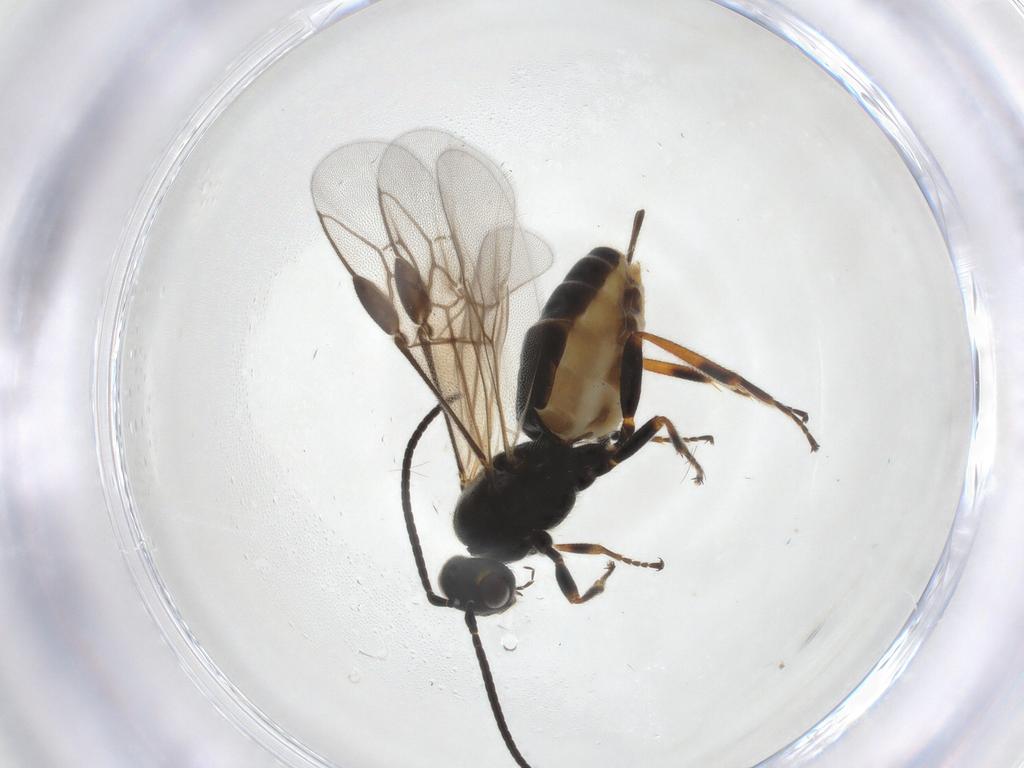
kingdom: Animalia
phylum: Arthropoda
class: Insecta
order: Hymenoptera
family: Braconidae
